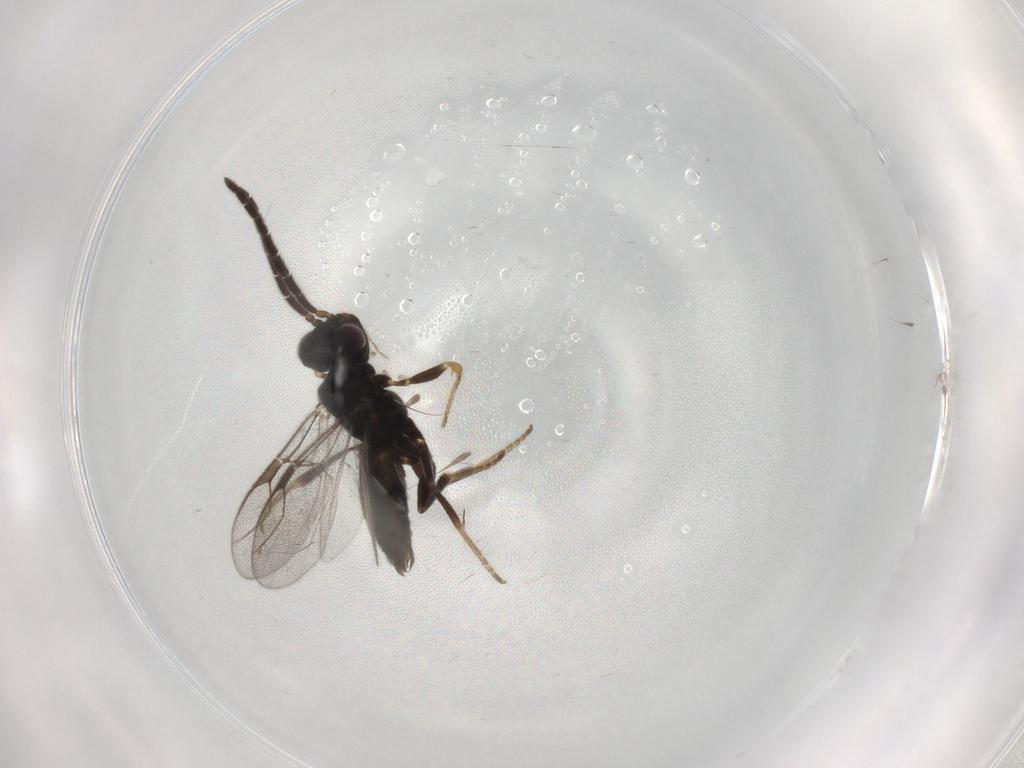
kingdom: Animalia
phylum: Arthropoda
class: Insecta
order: Hymenoptera
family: Dryinidae
